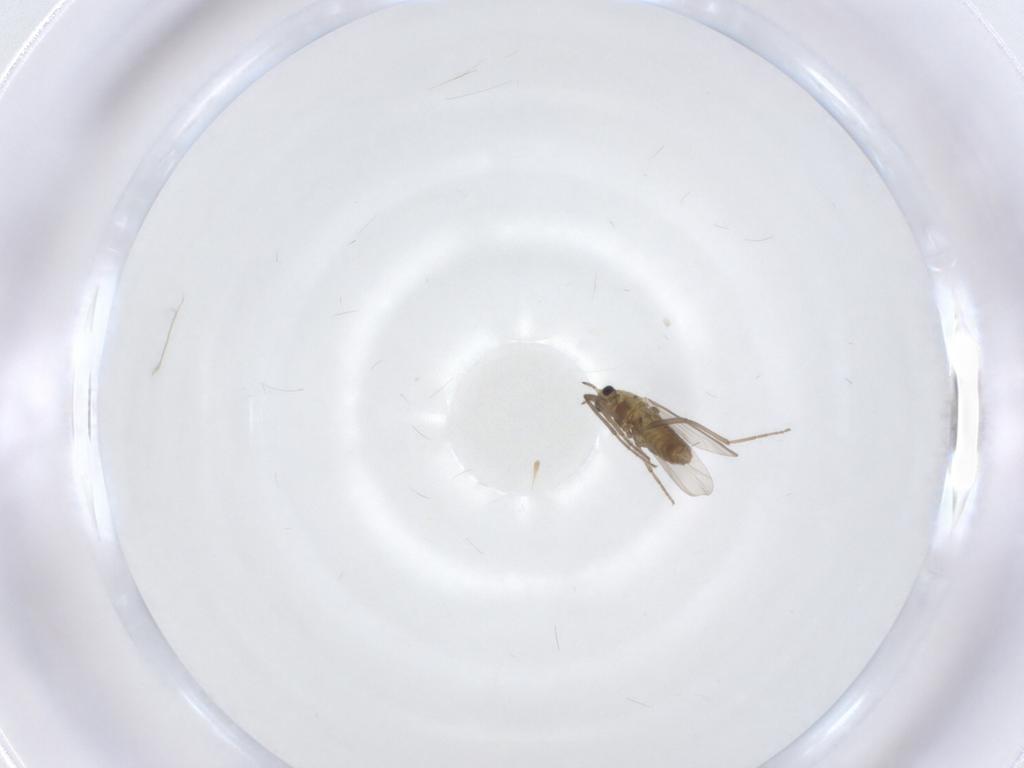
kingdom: Animalia
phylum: Arthropoda
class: Insecta
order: Diptera
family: Chironomidae
